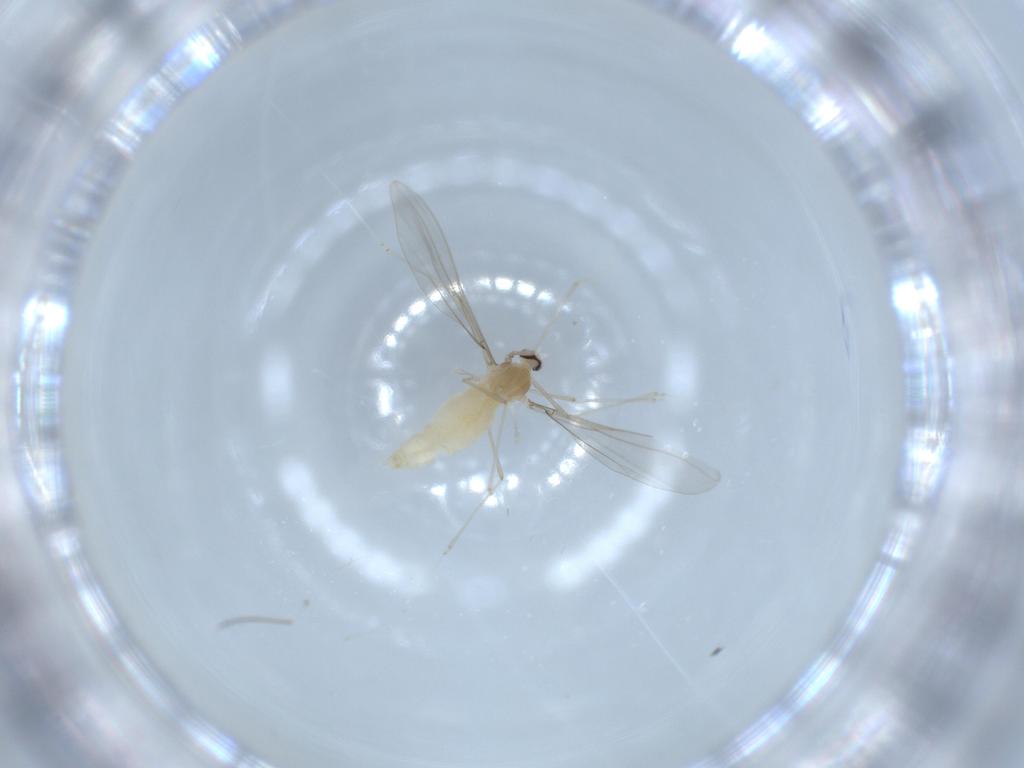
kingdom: Animalia
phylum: Arthropoda
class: Insecta
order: Diptera
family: Cecidomyiidae
